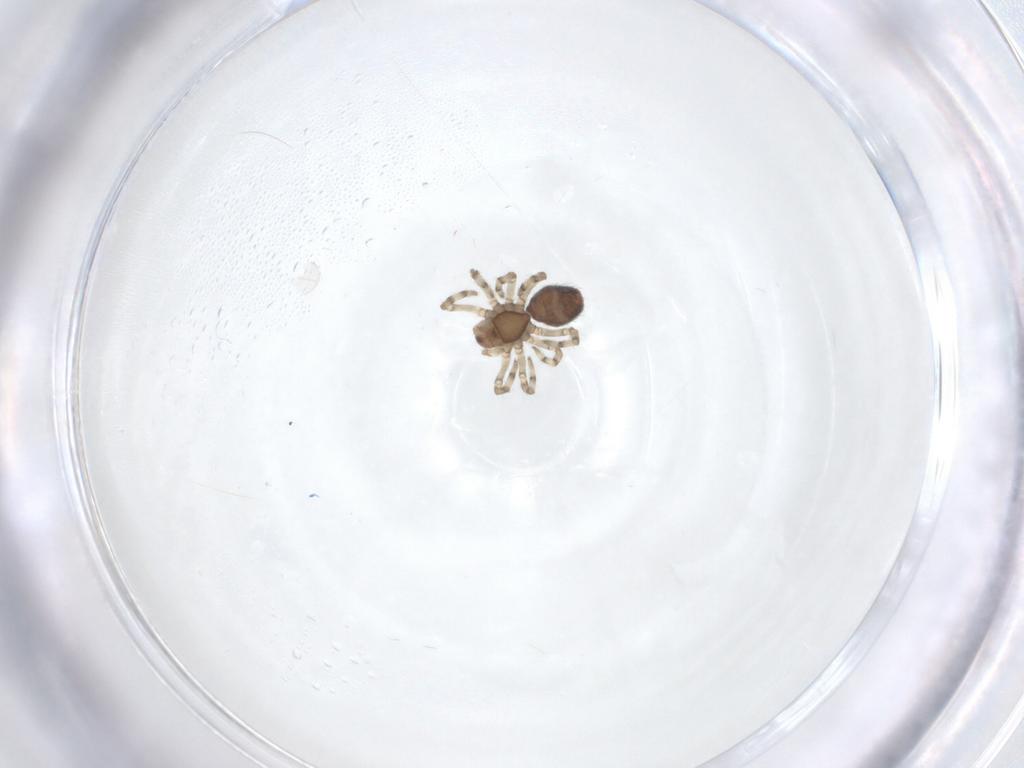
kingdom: Animalia
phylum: Arthropoda
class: Arachnida
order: Araneae
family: Dictynidae
